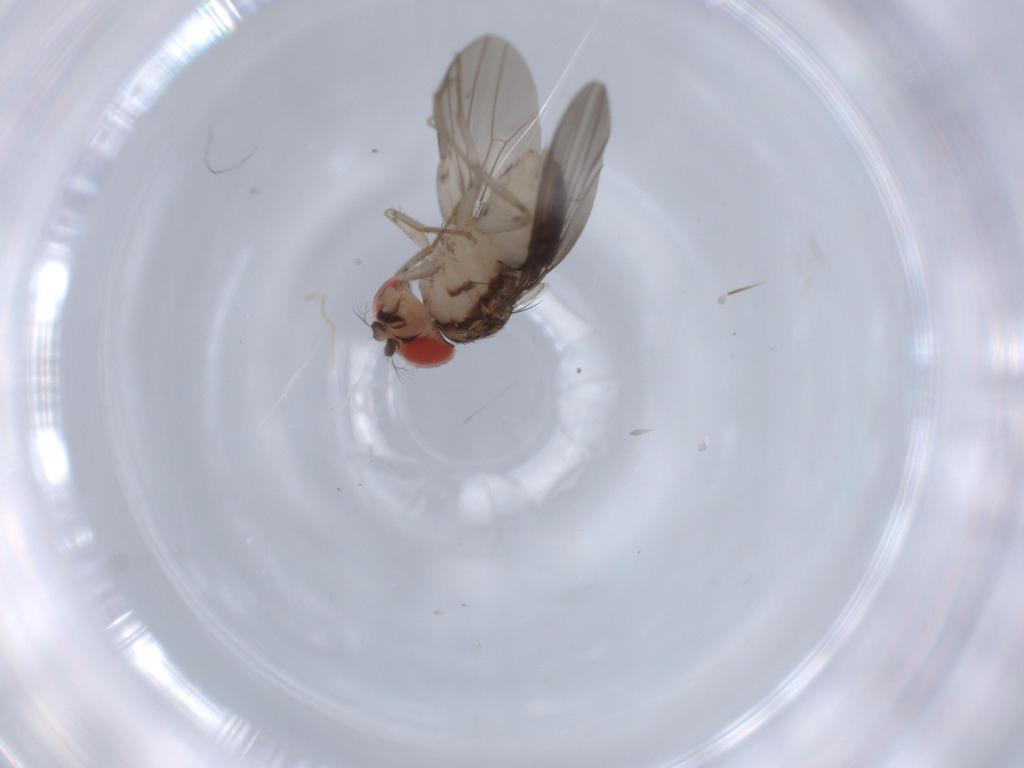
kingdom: Animalia
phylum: Arthropoda
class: Insecta
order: Diptera
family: Drosophilidae
